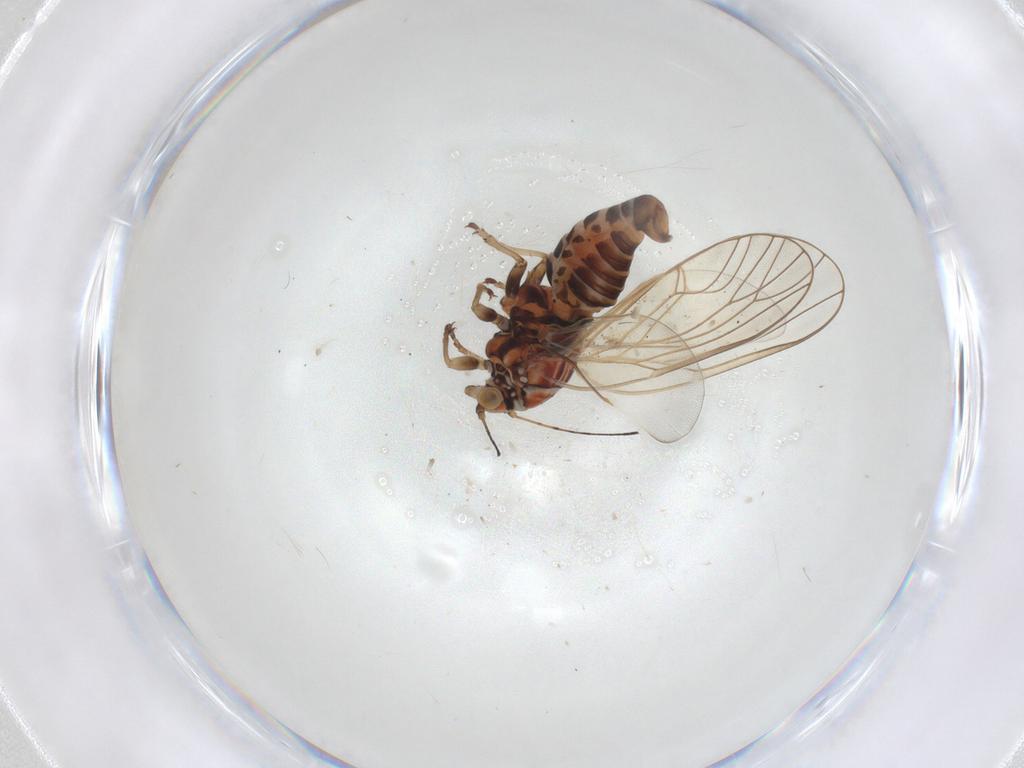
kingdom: Animalia
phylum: Arthropoda
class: Insecta
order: Hemiptera
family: Psyllidae
